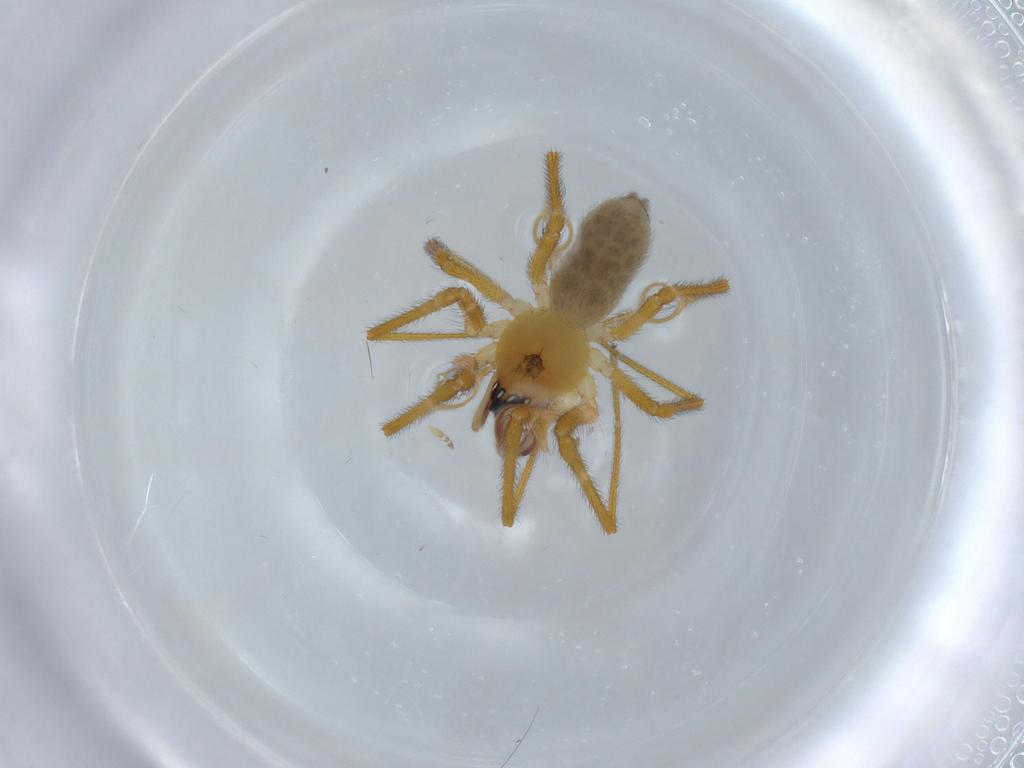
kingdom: Animalia
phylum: Arthropoda
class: Arachnida
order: Araneae
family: Linyphiidae
